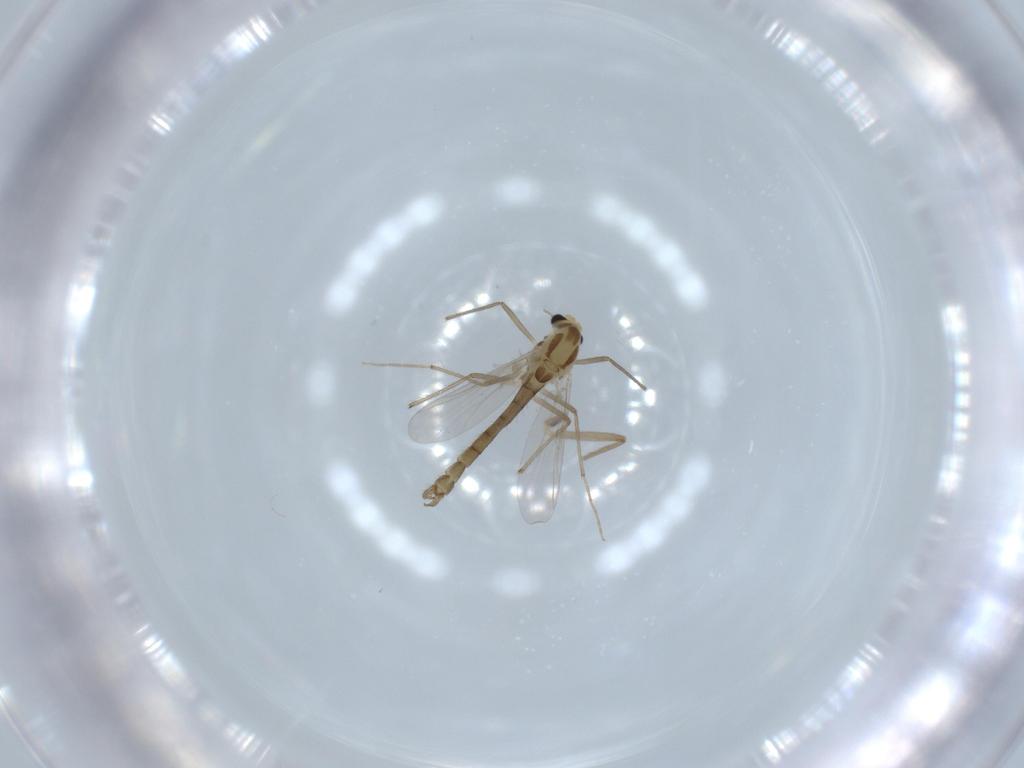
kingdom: Animalia
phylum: Arthropoda
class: Insecta
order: Diptera
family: Chironomidae
